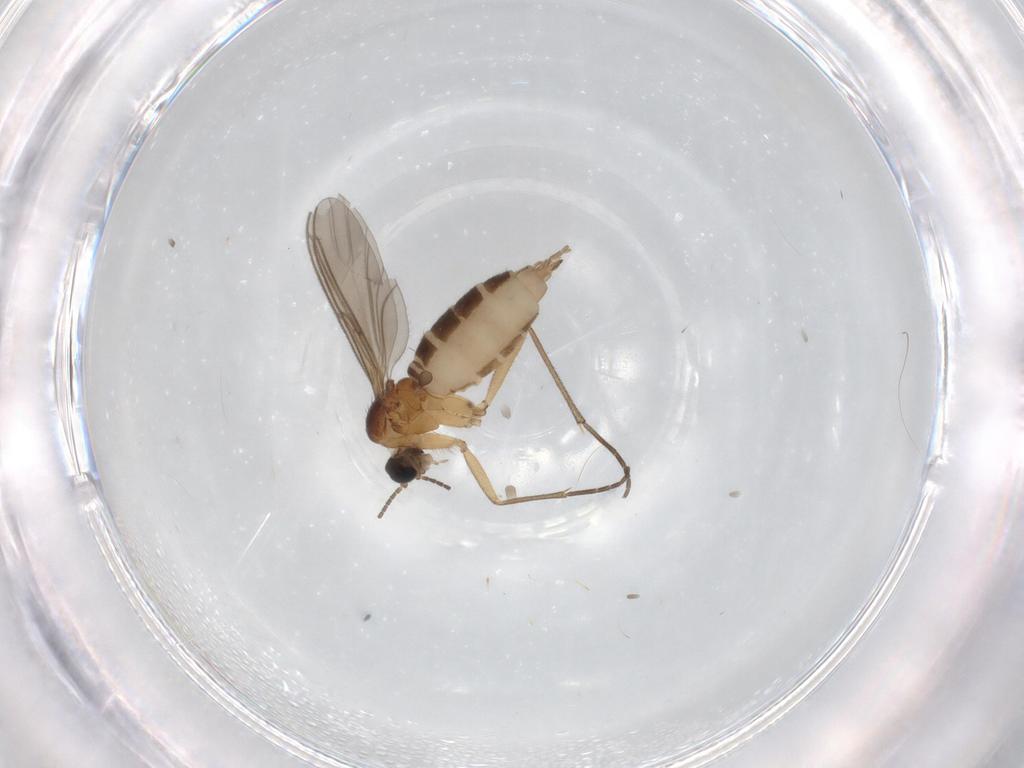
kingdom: Animalia
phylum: Arthropoda
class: Insecta
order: Diptera
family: Sciaridae
